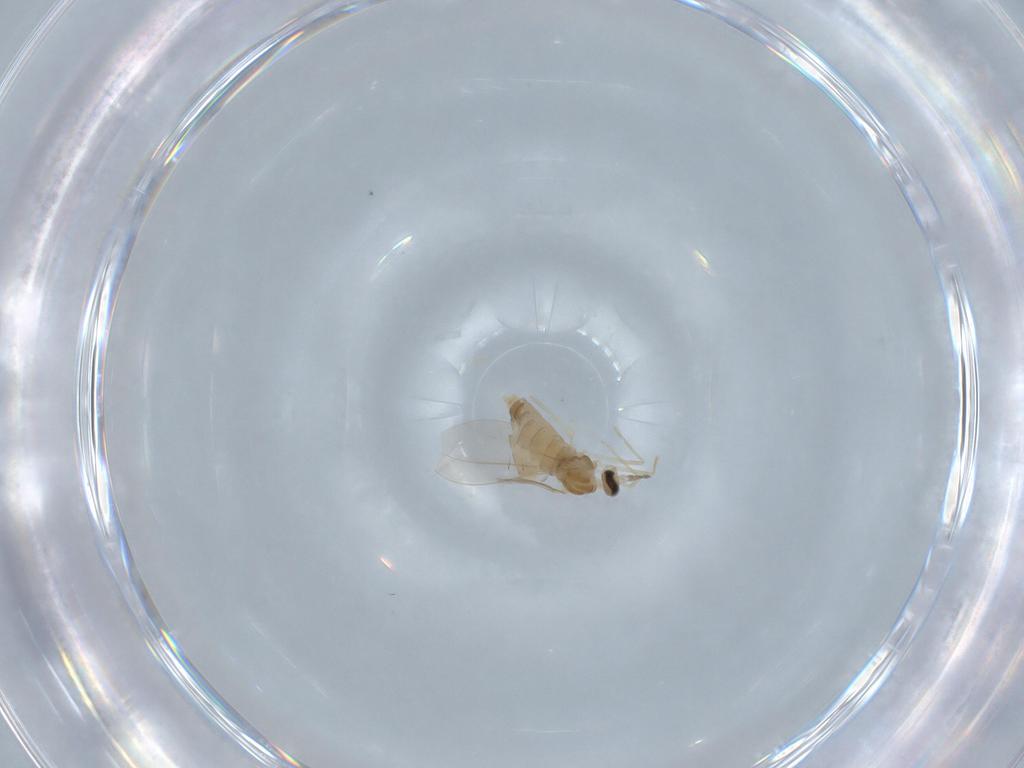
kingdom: Animalia
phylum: Arthropoda
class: Insecta
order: Diptera
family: Cecidomyiidae
